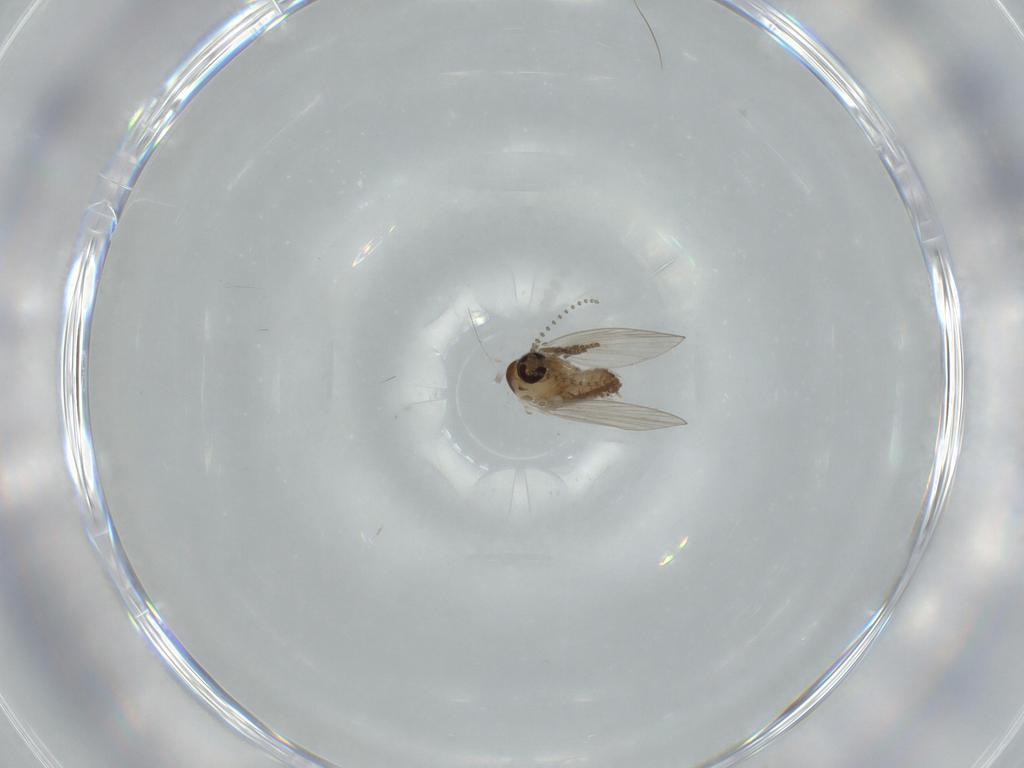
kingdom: Animalia
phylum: Arthropoda
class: Insecta
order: Diptera
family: Psychodidae
